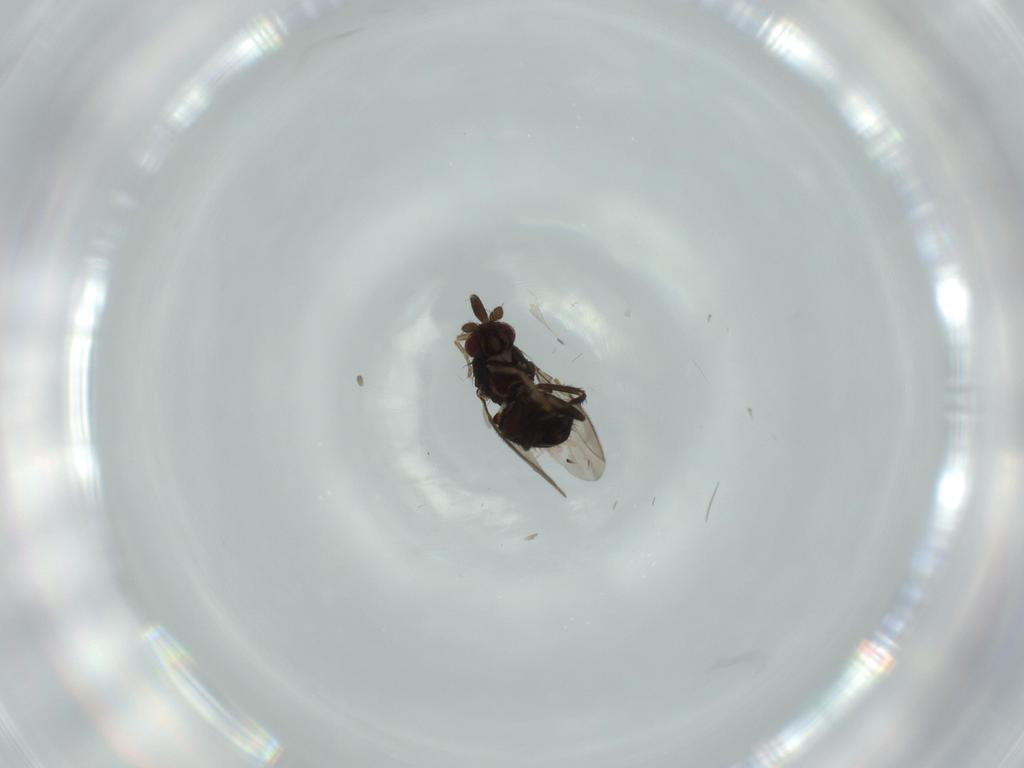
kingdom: Animalia
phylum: Arthropoda
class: Insecta
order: Diptera
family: Sphaeroceridae
